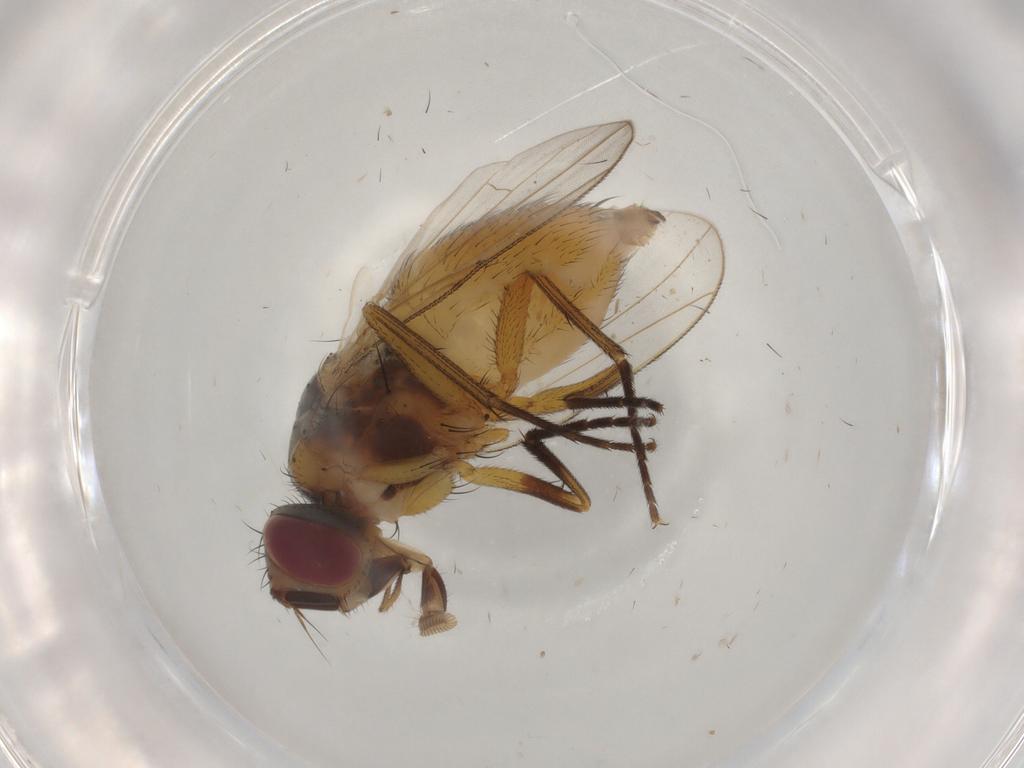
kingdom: Animalia
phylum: Arthropoda
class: Insecta
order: Diptera
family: Muscidae
